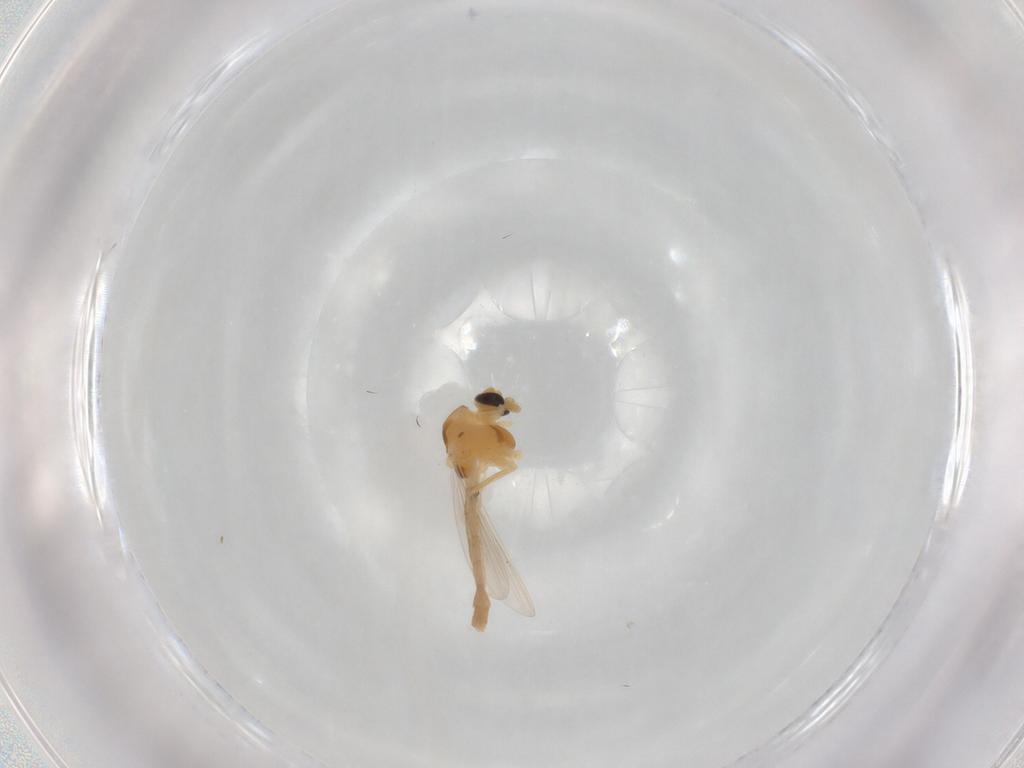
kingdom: Animalia
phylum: Arthropoda
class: Insecta
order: Diptera
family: Chironomidae
